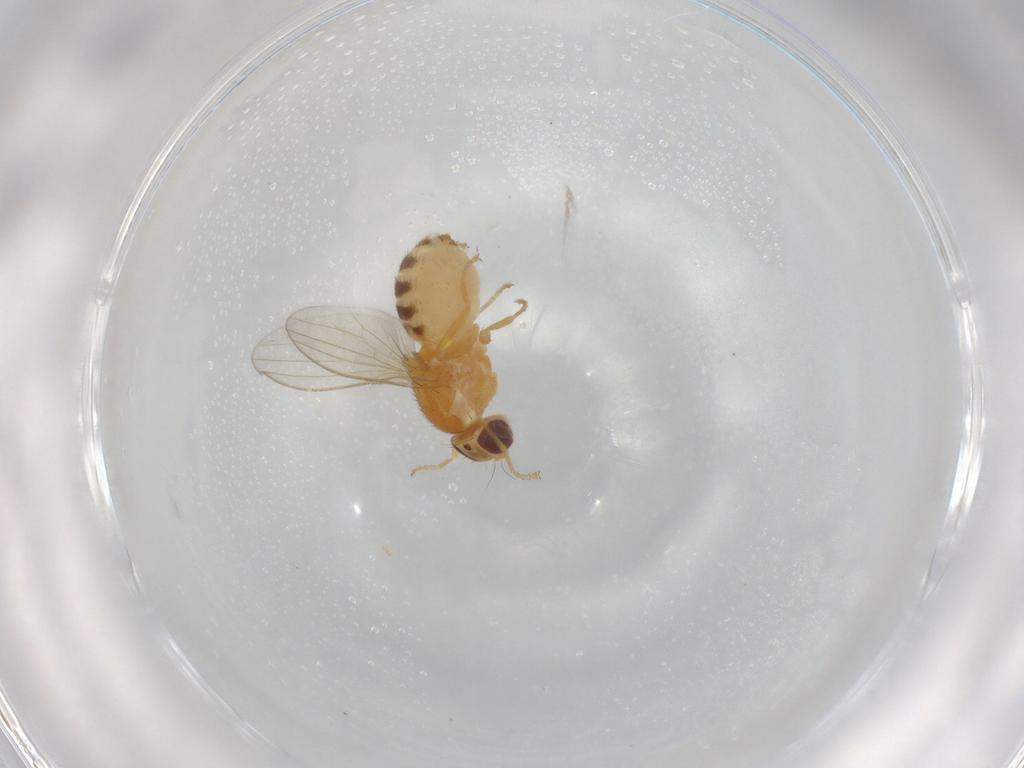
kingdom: Animalia
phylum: Arthropoda
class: Insecta
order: Diptera
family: Chyromyidae
